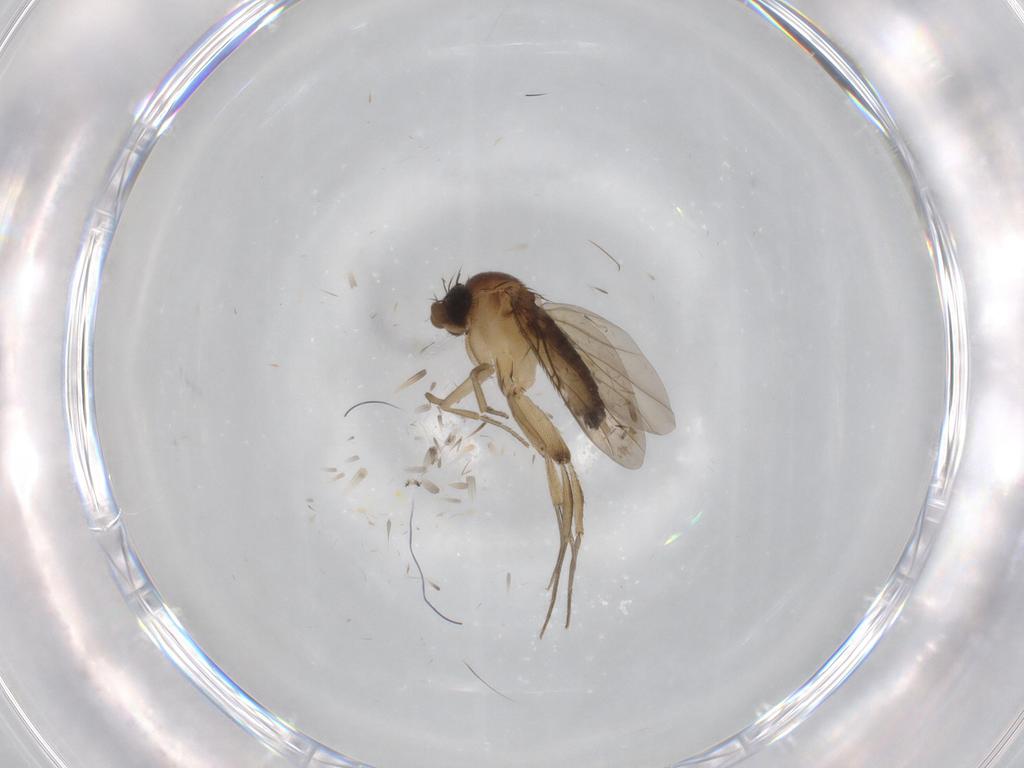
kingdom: Animalia
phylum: Arthropoda
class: Insecta
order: Diptera
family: Phoridae
